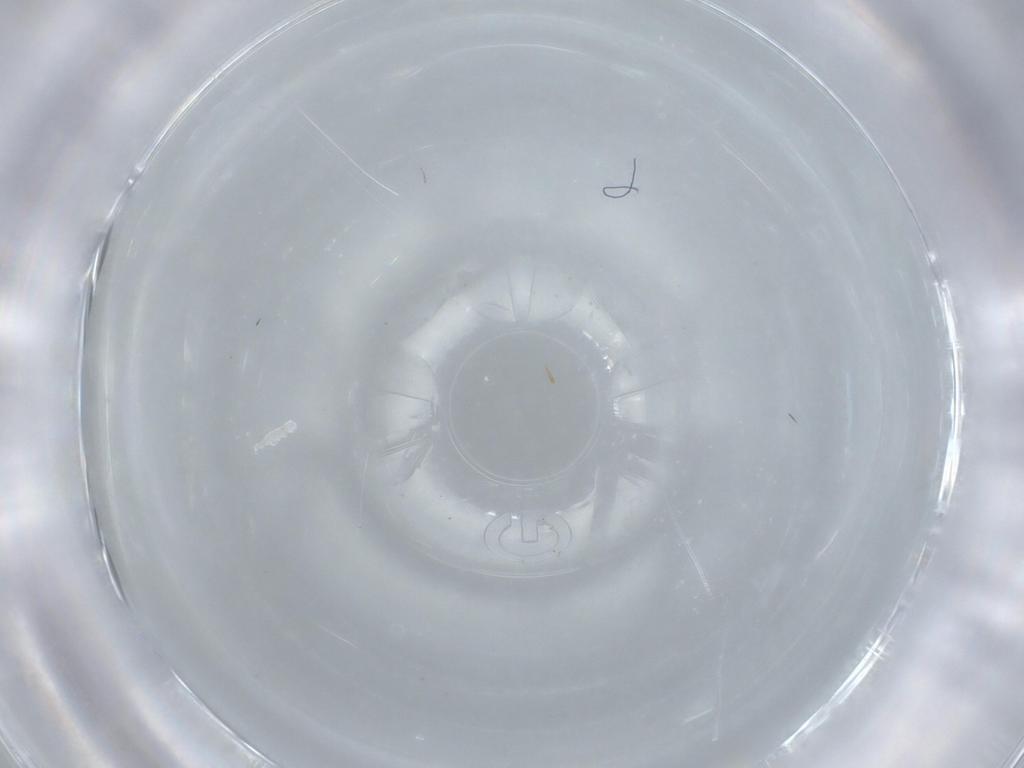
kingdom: Animalia
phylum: Arthropoda
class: Insecta
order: Diptera
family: Cecidomyiidae
